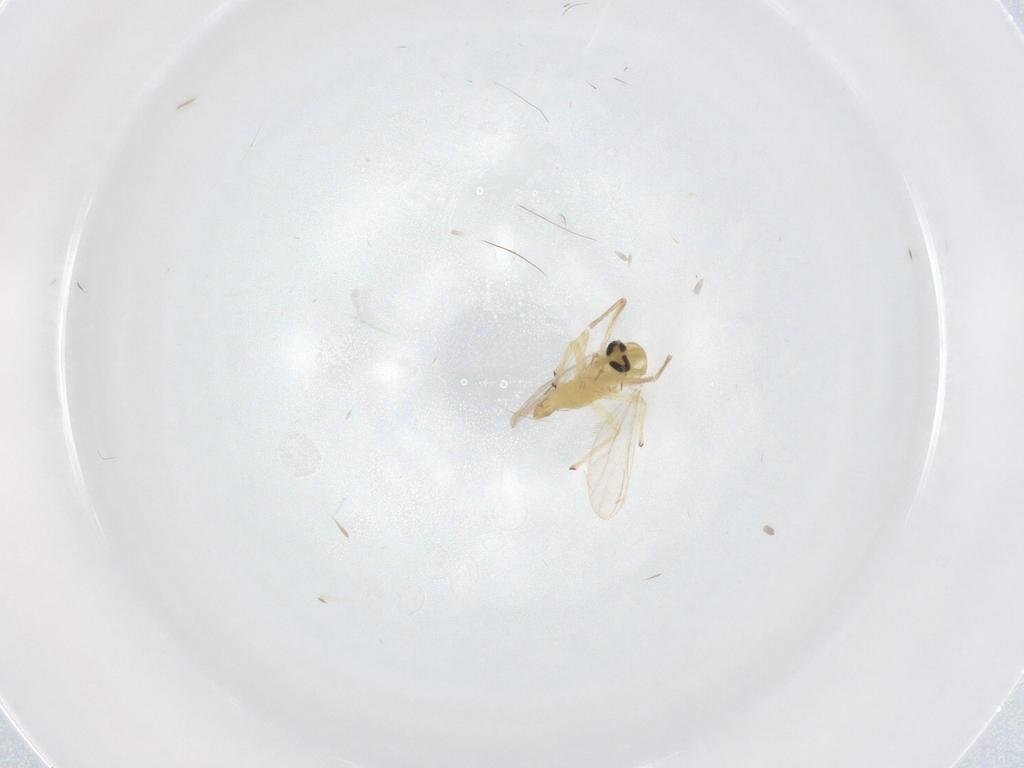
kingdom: Animalia
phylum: Arthropoda
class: Insecta
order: Diptera
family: Chironomidae
